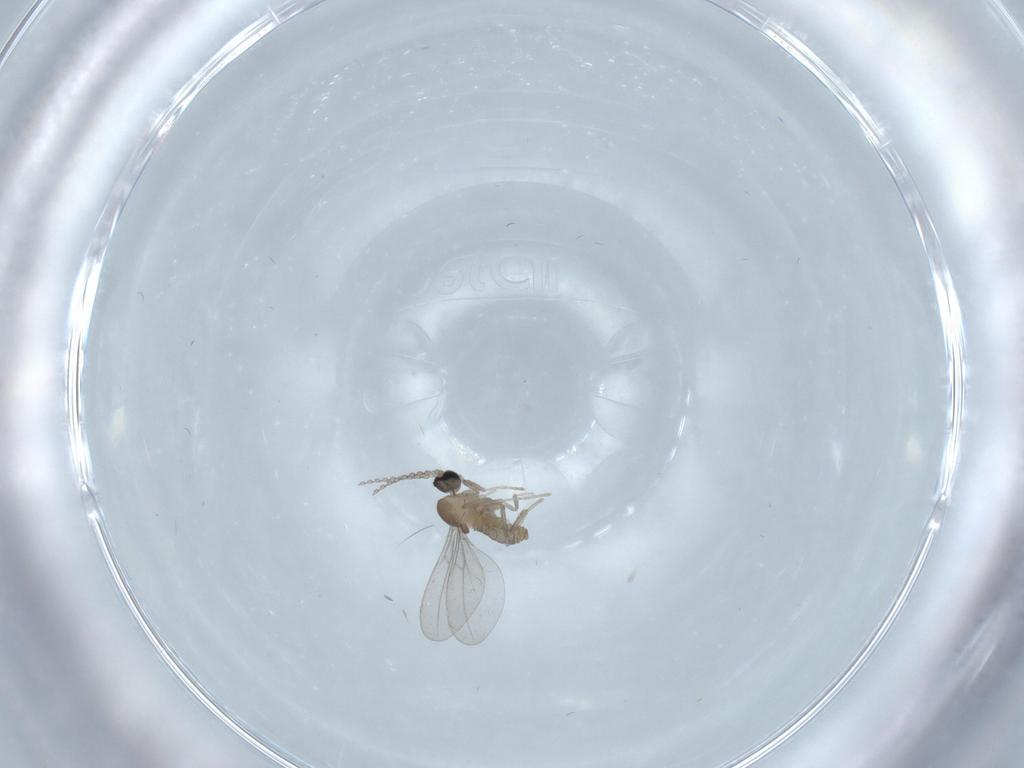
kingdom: Animalia
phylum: Arthropoda
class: Insecta
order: Diptera
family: Cecidomyiidae
